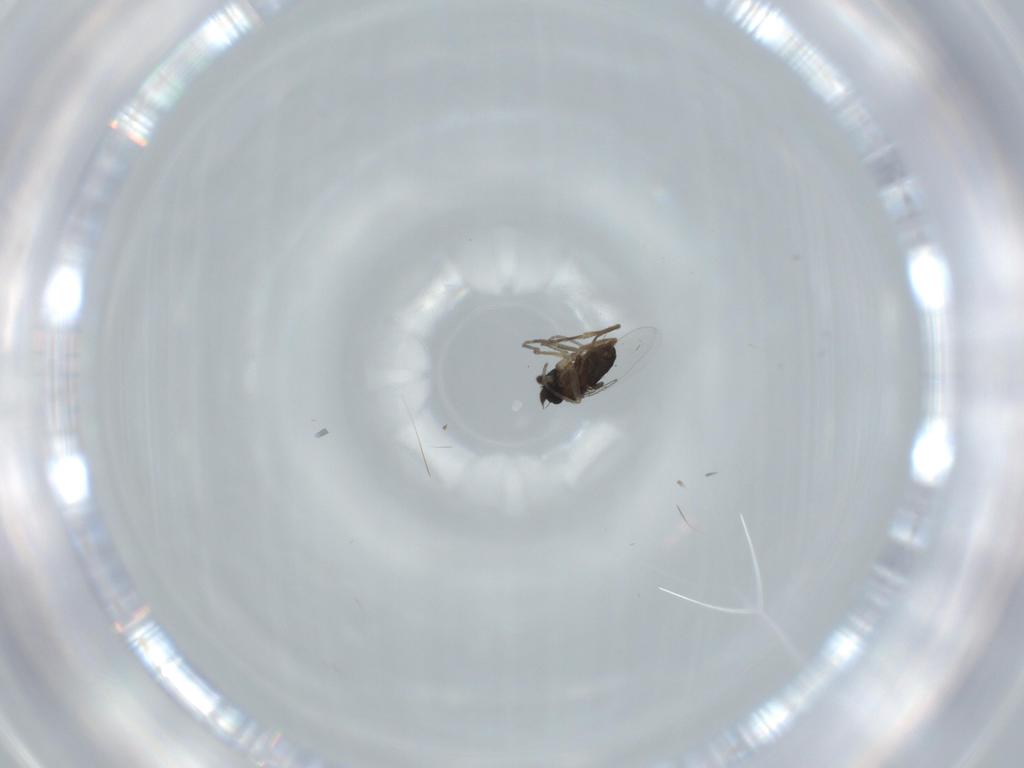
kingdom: Animalia
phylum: Arthropoda
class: Insecta
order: Diptera
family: Phoridae
